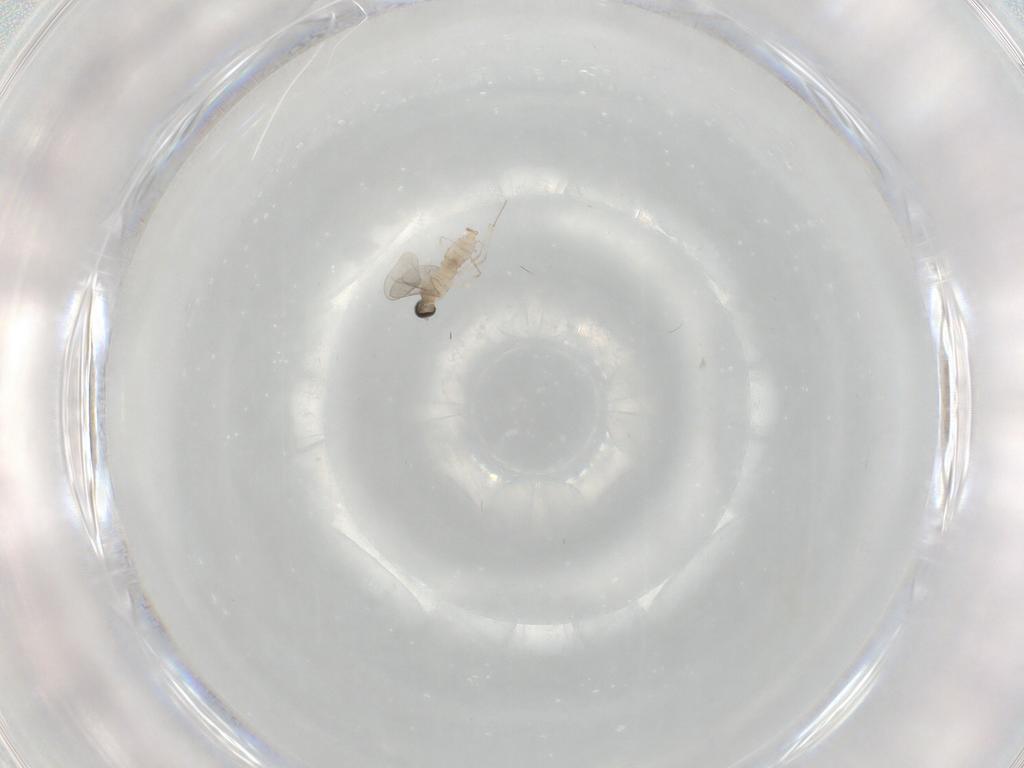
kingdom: Animalia
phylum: Arthropoda
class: Insecta
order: Diptera
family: Cecidomyiidae
